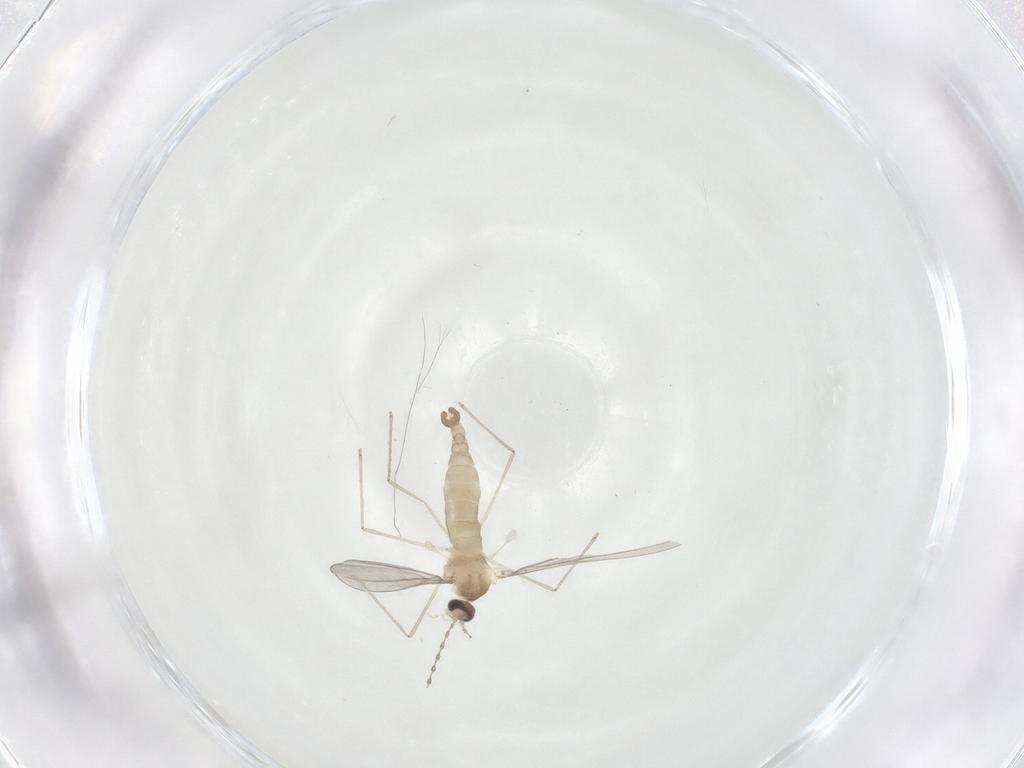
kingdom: Animalia
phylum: Arthropoda
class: Insecta
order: Diptera
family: Cecidomyiidae
